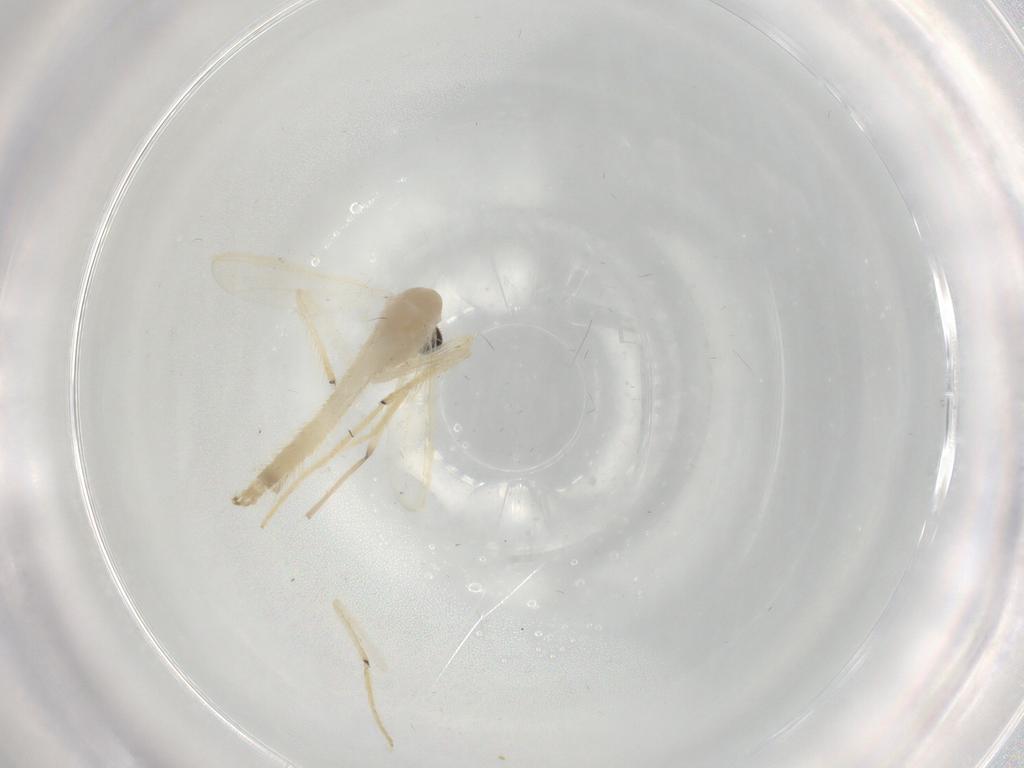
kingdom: Animalia
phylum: Arthropoda
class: Insecta
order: Diptera
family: Chironomidae
